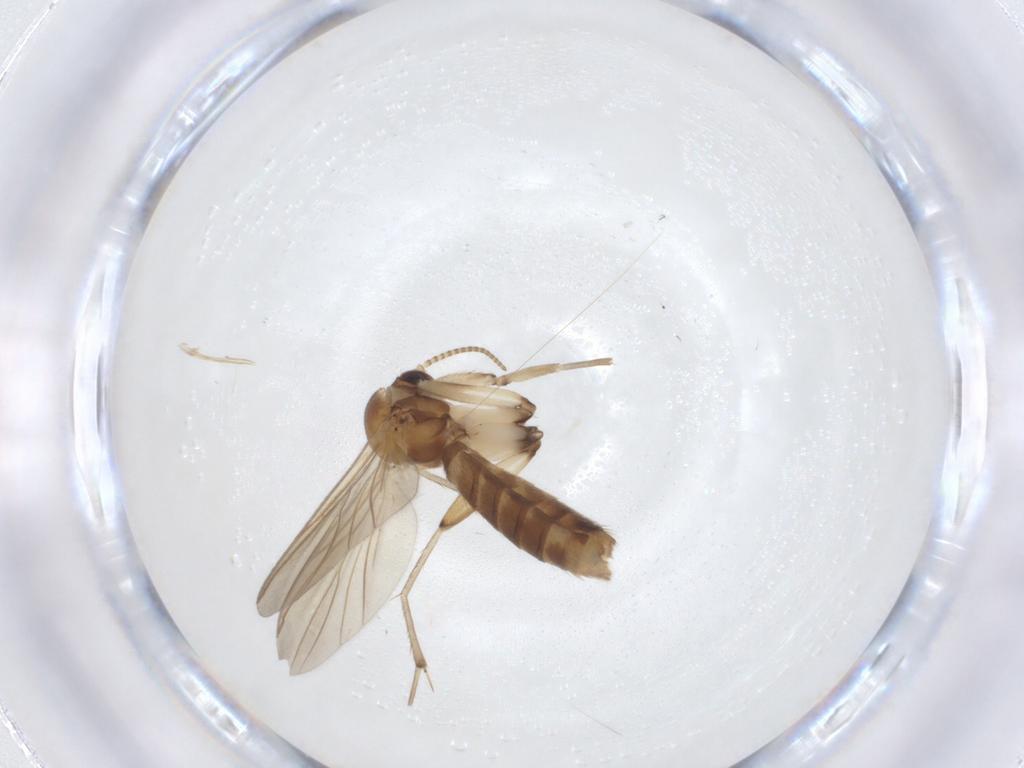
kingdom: Animalia
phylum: Arthropoda
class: Insecta
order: Diptera
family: Mycetophilidae
